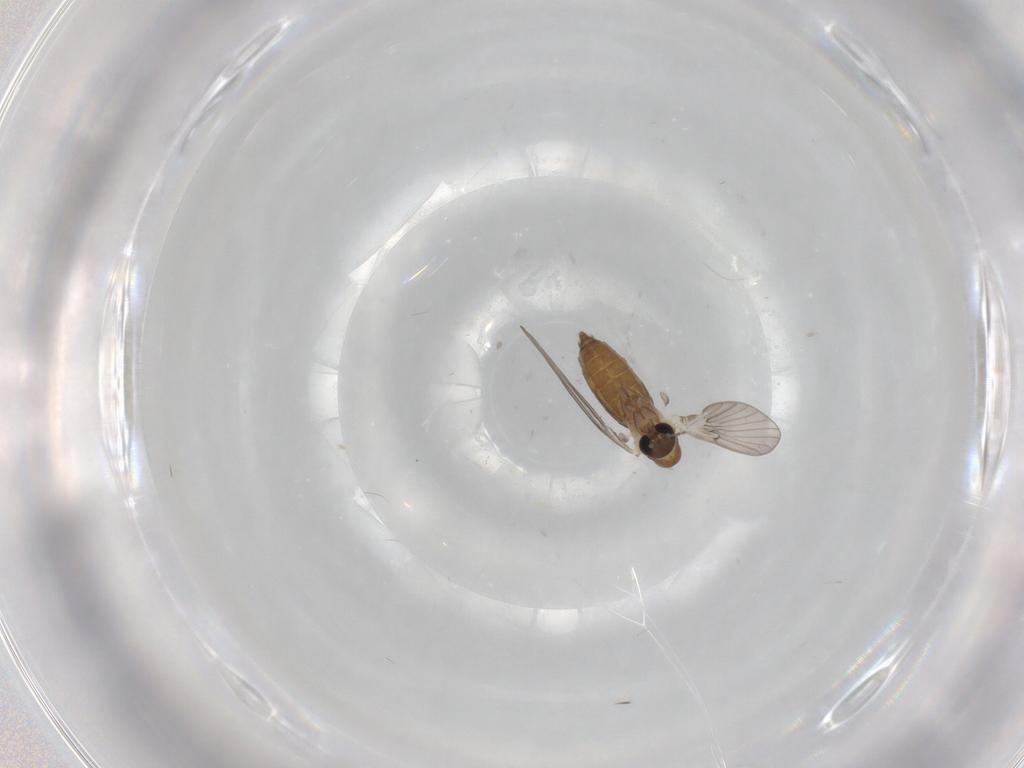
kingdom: Animalia
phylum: Arthropoda
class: Insecta
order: Diptera
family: Psychodidae
